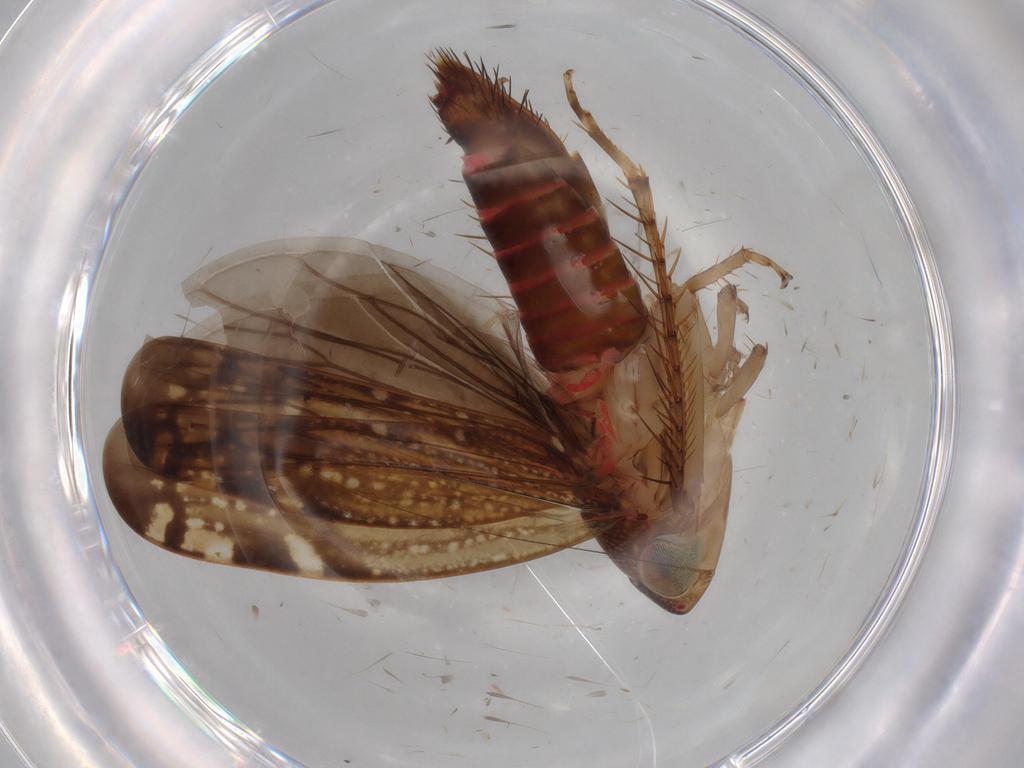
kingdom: Animalia
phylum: Arthropoda
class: Insecta
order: Hemiptera
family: Cicadellidae
